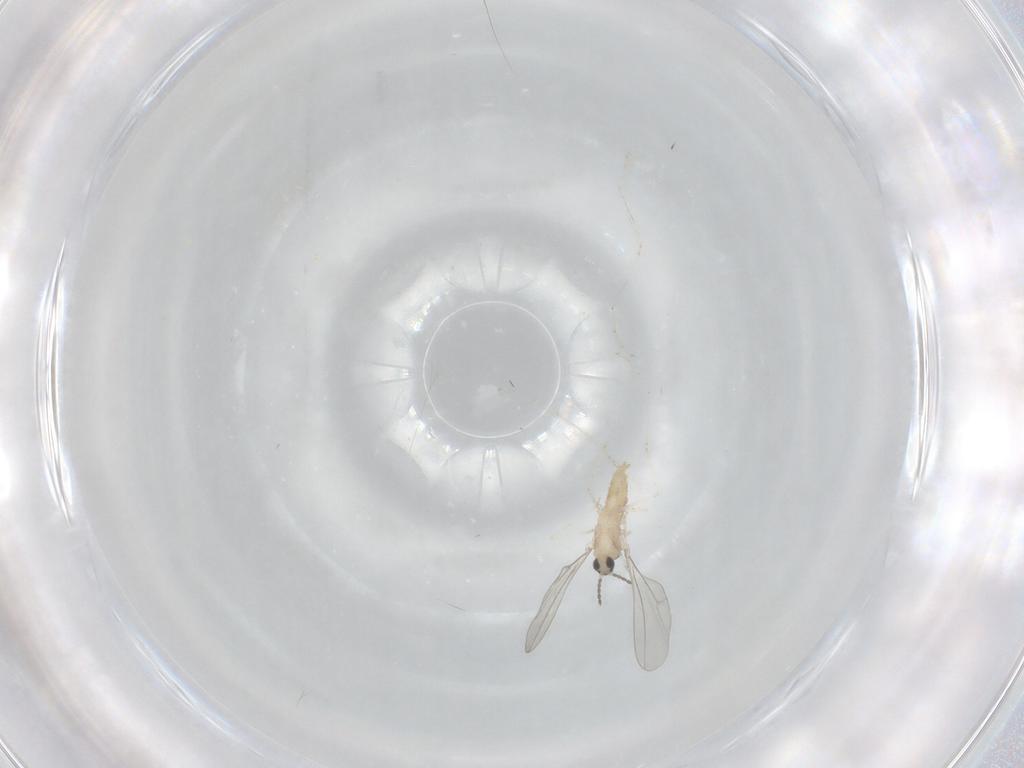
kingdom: Animalia
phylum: Arthropoda
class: Insecta
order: Diptera
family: Cecidomyiidae
